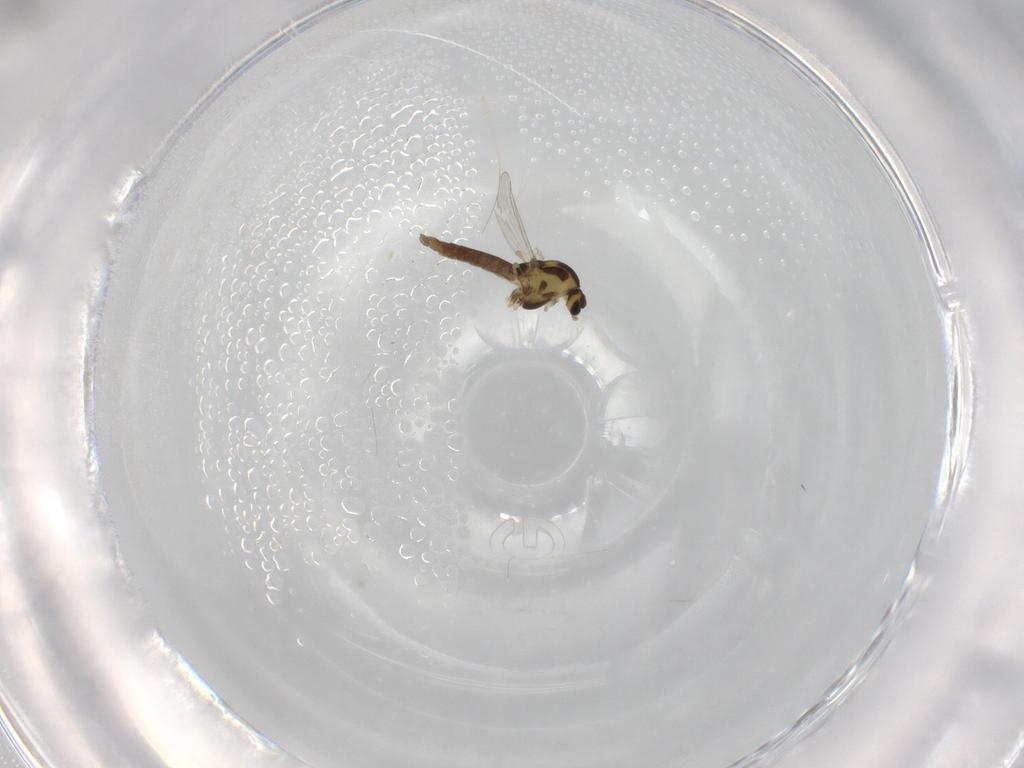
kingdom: Animalia
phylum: Arthropoda
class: Insecta
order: Diptera
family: Chironomidae
